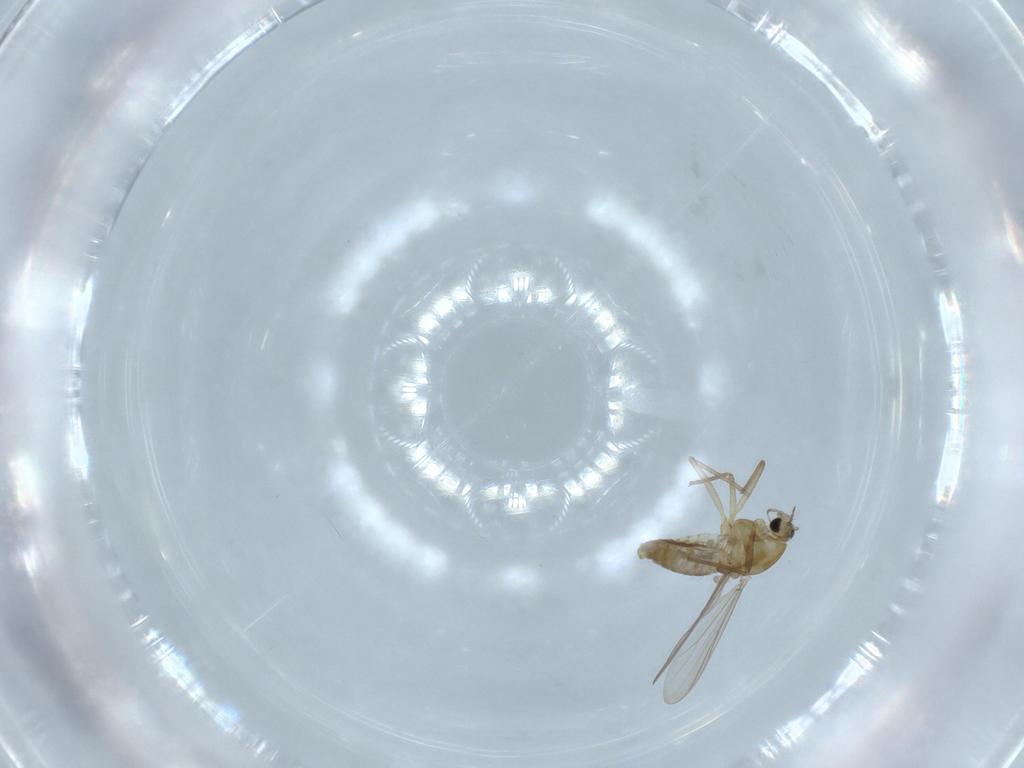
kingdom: Animalia
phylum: Arthropoda
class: Insecta
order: Diptera
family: Chironomidae
